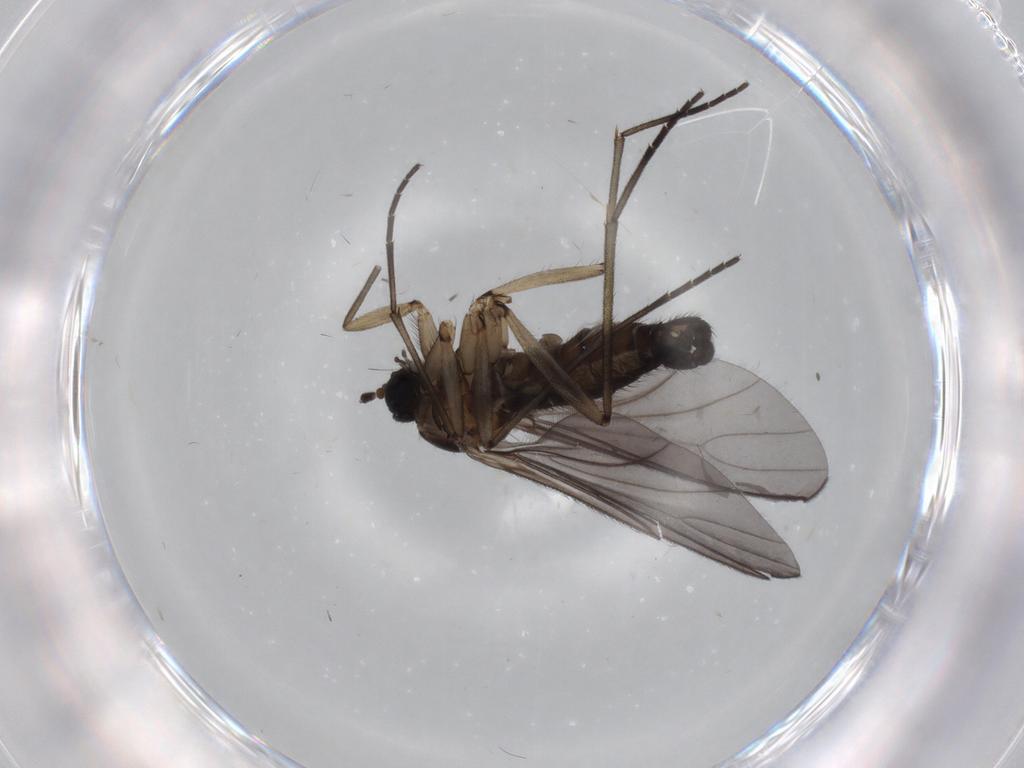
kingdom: Animalia
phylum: Arthropoda
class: Insecta
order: Diptera
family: Sciaridae
